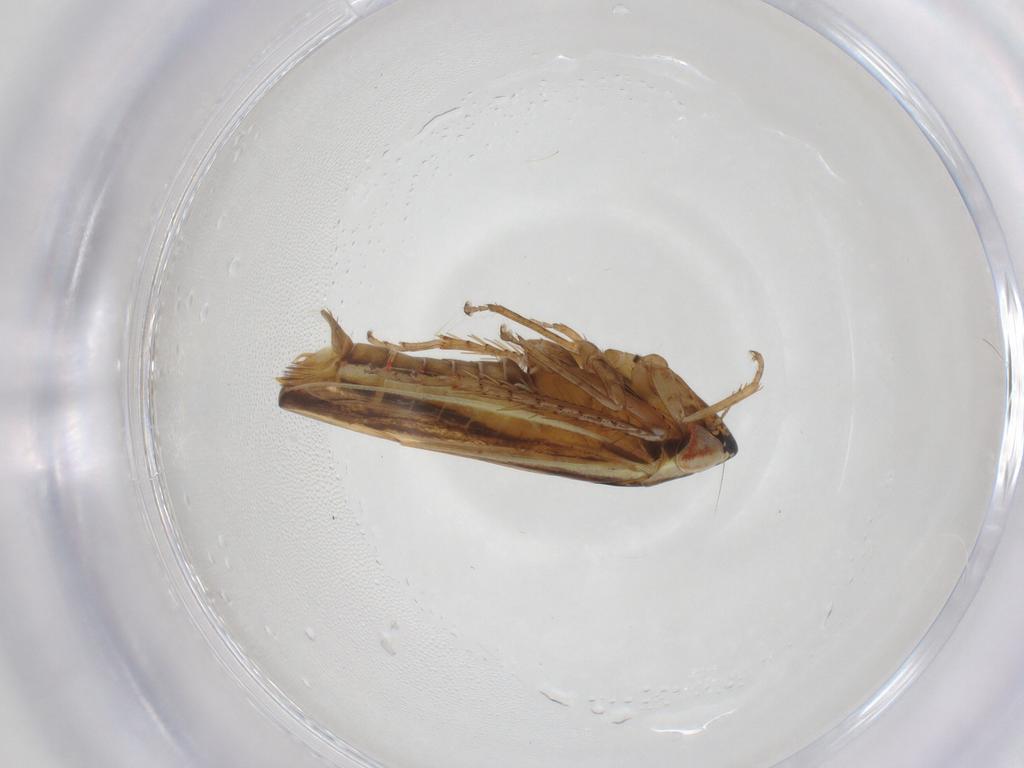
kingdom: Animalia
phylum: Arthropoda
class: Insecta
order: Hemiptera
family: Cicadellidae
